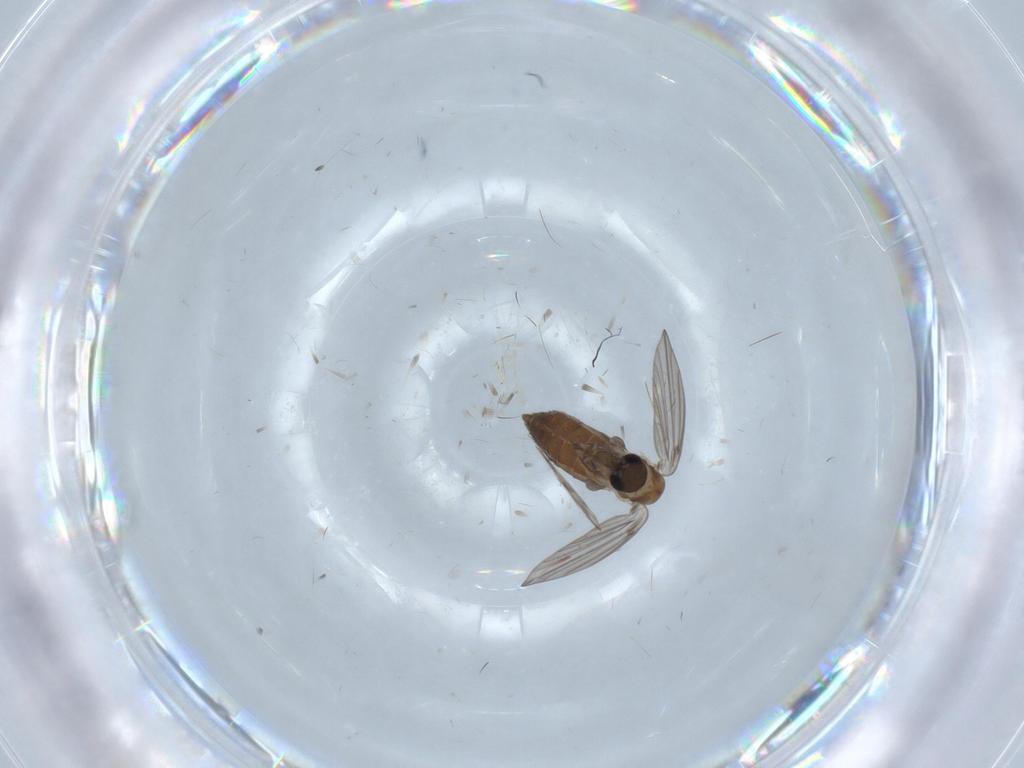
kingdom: Animalia
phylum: Arthropoda
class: Insecta
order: Diptera
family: Psychodidae
